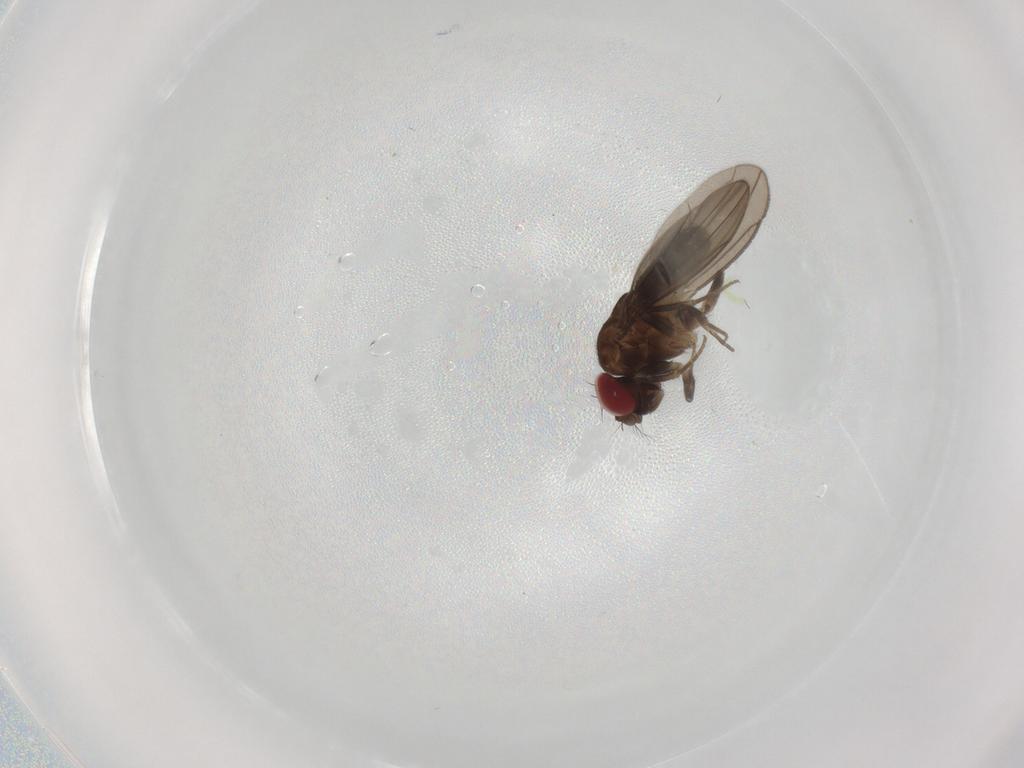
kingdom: Animalia
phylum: Arthropoda
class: Insecta
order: Diptera
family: Drosophilidae
